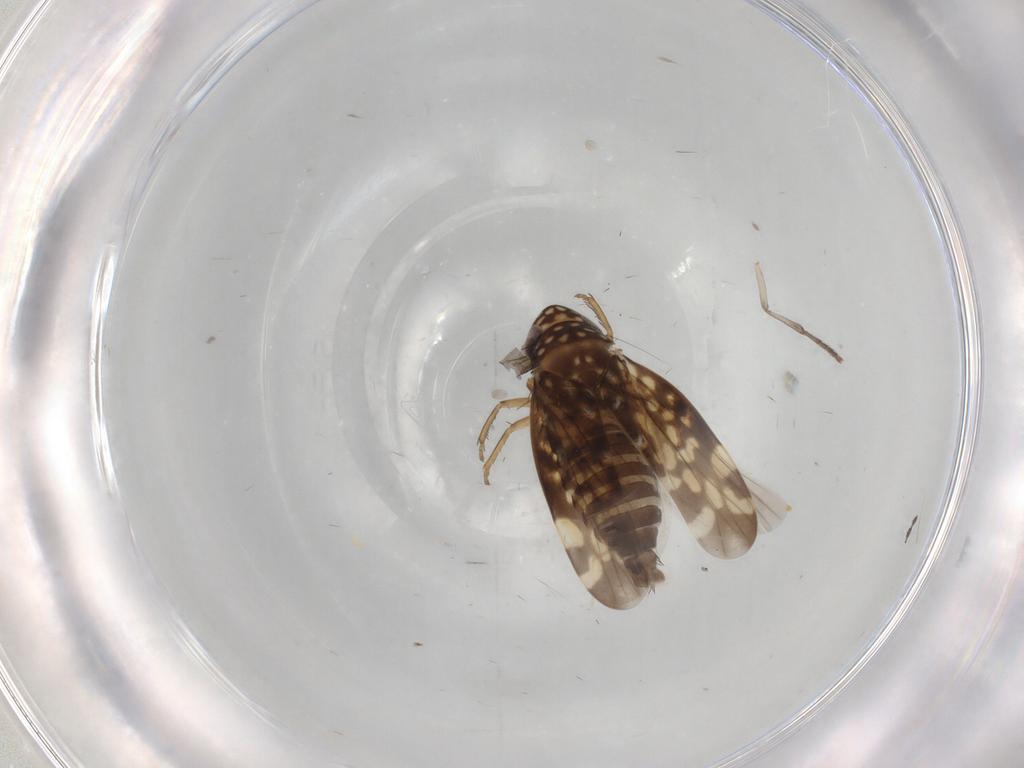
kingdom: Animalia
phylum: Arthropoda
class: Insecta
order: Hemiptera
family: Cicadellidae
